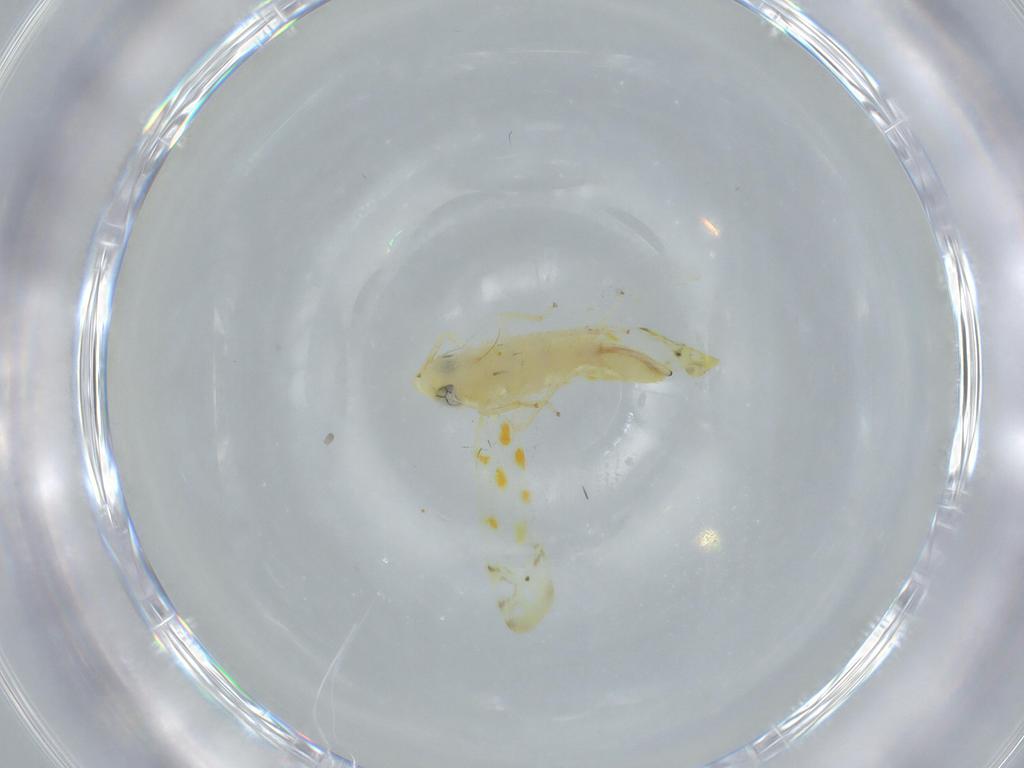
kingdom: Animalia
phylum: Arthropoda
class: Insecta
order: Hemiptera
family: Cicadellidae
